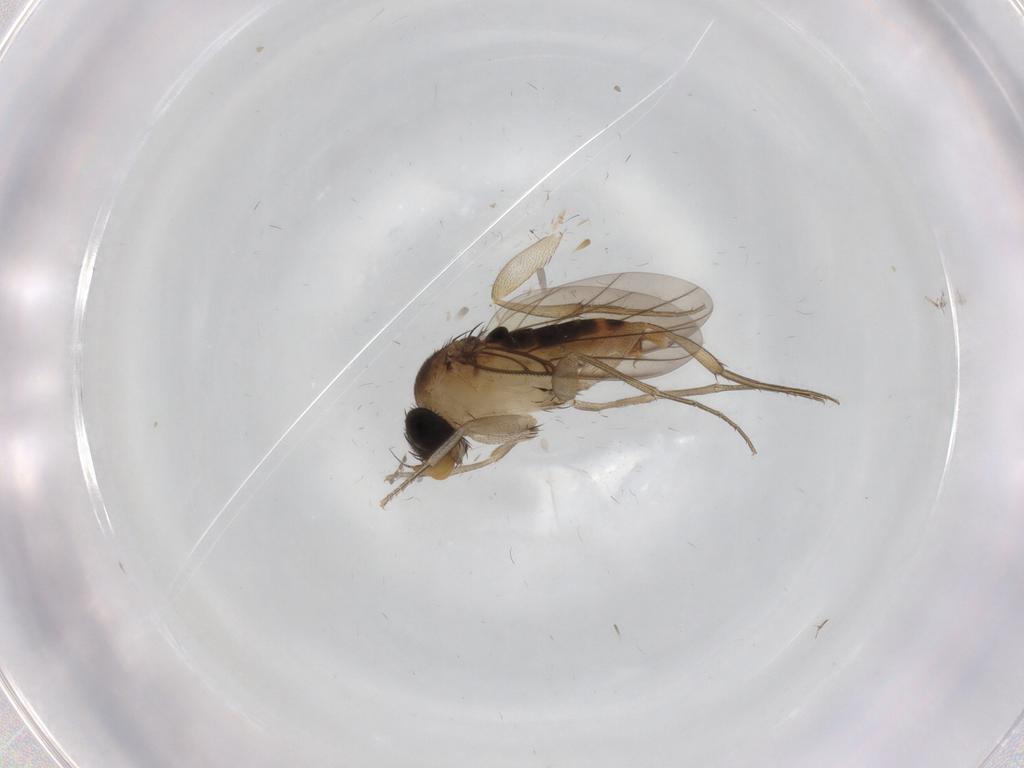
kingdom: Animalia
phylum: Arthropoda
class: Insecta
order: Diptera
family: Phoridae
